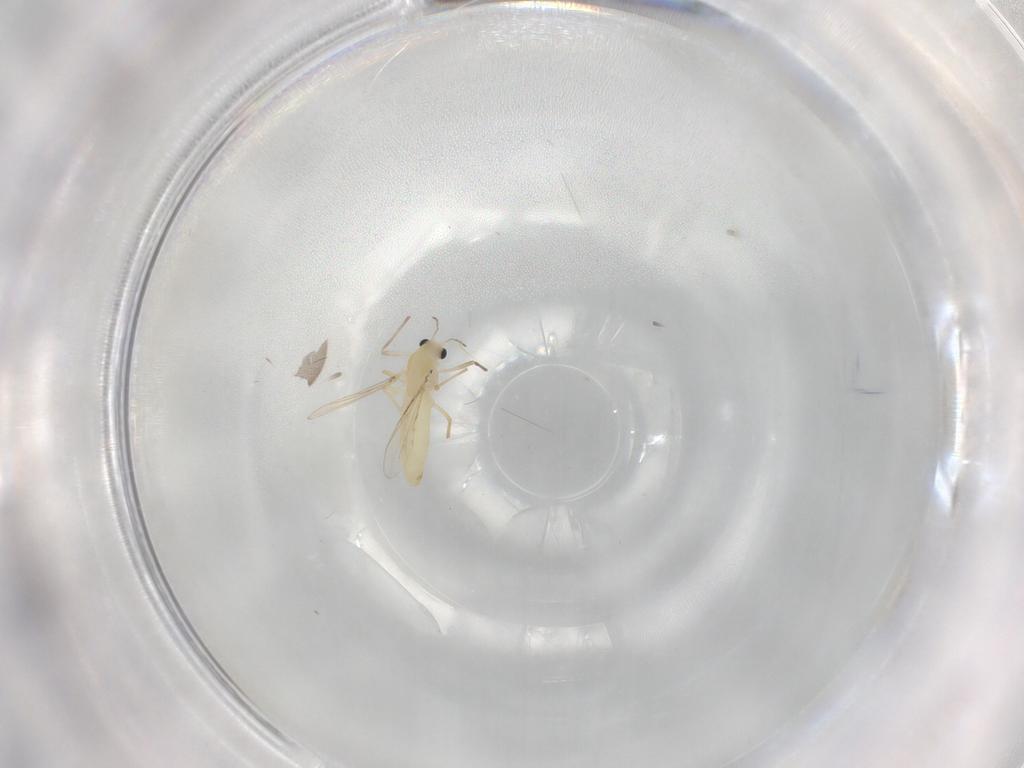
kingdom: Animalia
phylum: Arthropoda
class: Insecta
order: Diptera
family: Chironomidae
